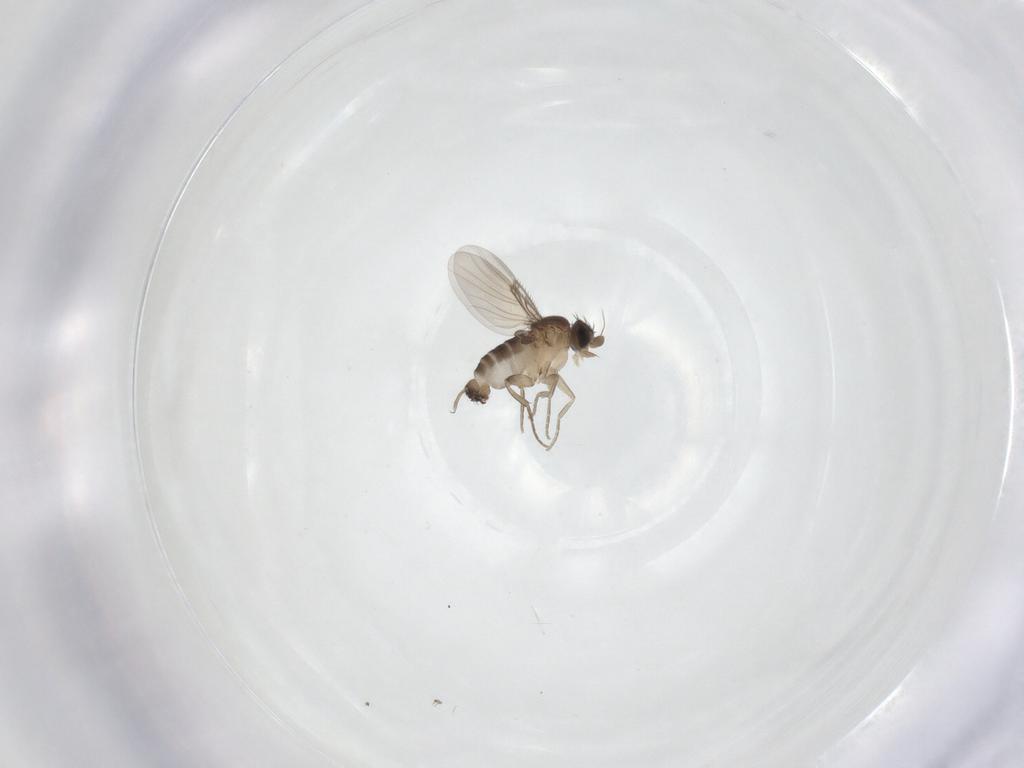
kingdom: Animalia
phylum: Arthropoda
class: Insecta
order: Diptera
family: Phoridae
